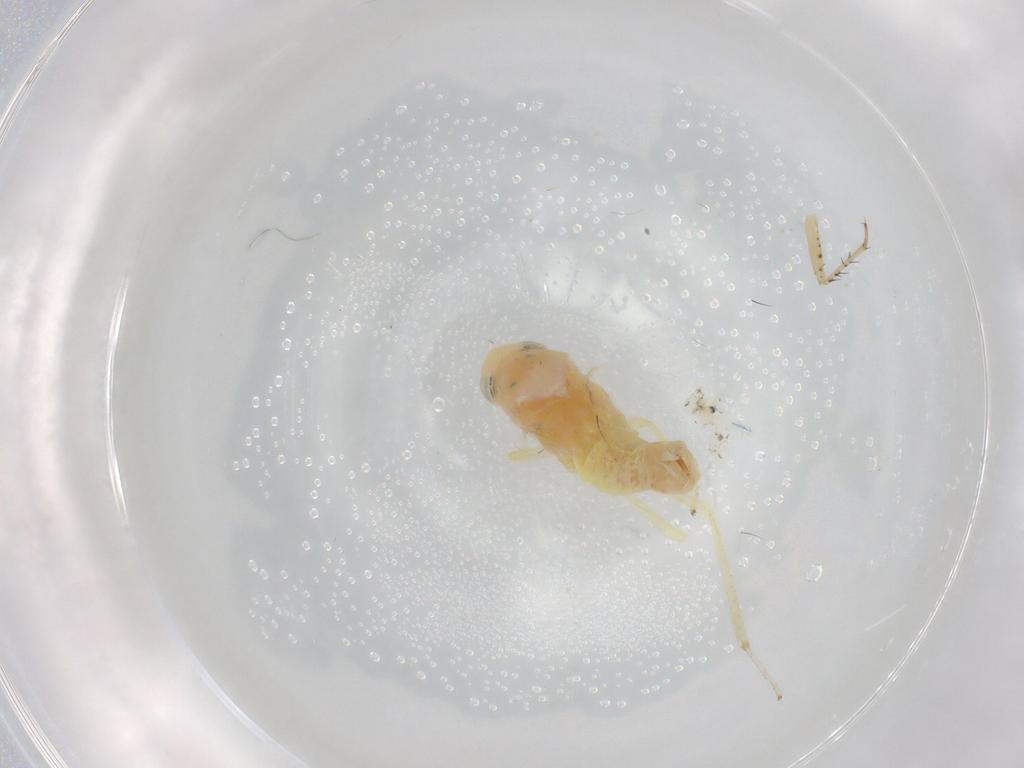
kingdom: Animalia
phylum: Arthropoda
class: Insecta
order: Hemiptera
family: Cicadellidae
